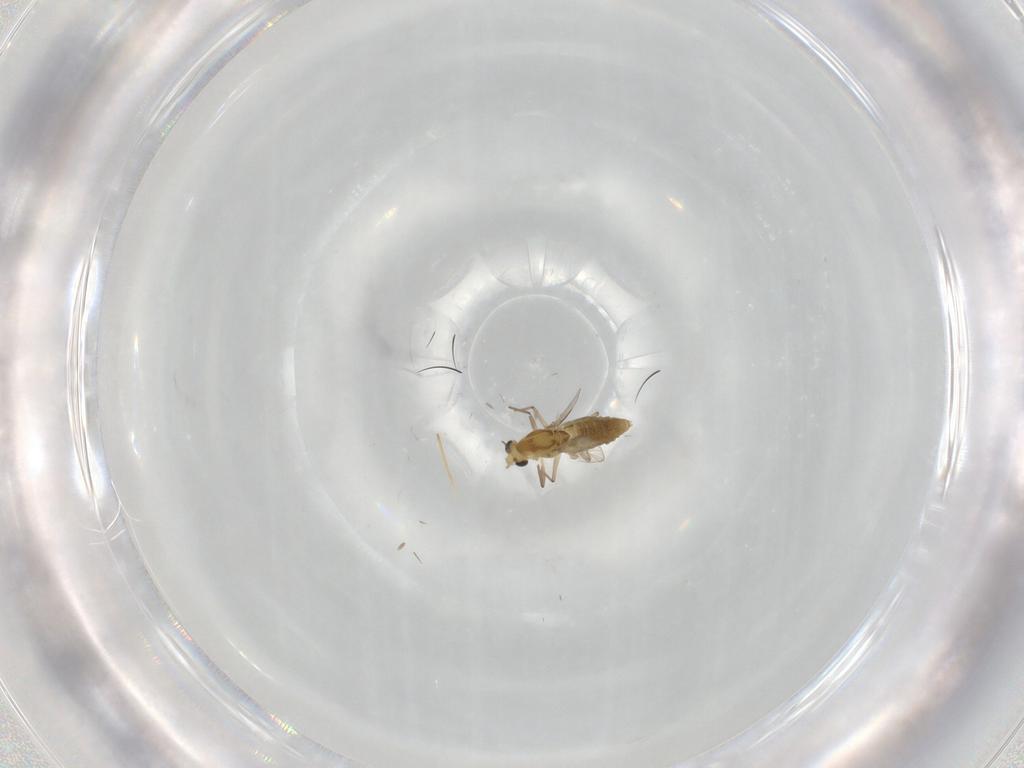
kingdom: Animalia
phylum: Arthropoda
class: Insecta
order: Diptera
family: Chironomidae
